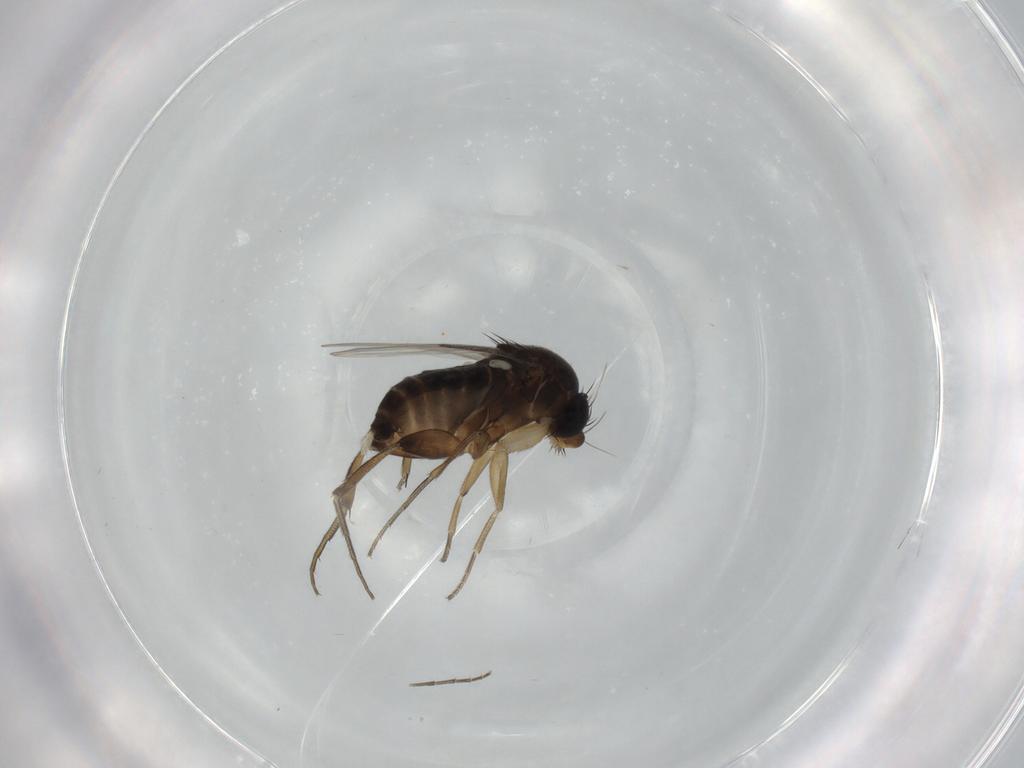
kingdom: Animalia
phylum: Arthropoda
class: Insecta
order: Diptera
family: Phoridae
